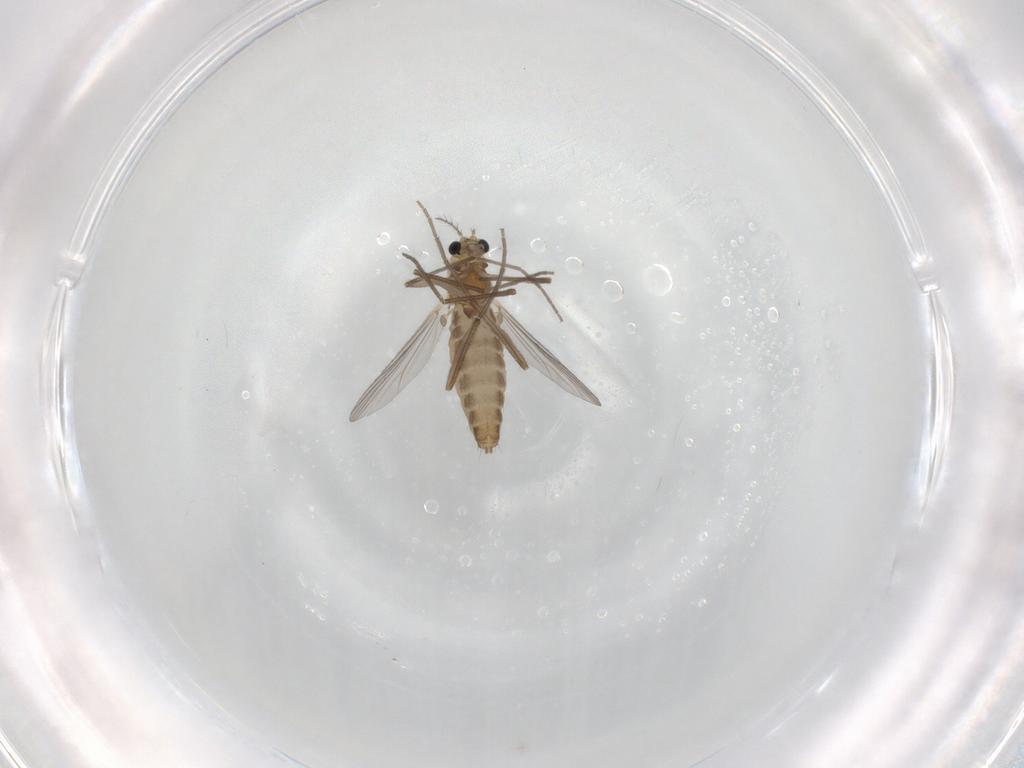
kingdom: Animalia
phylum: Arthropoda
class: Insecta
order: Diptera
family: Chironomidae
